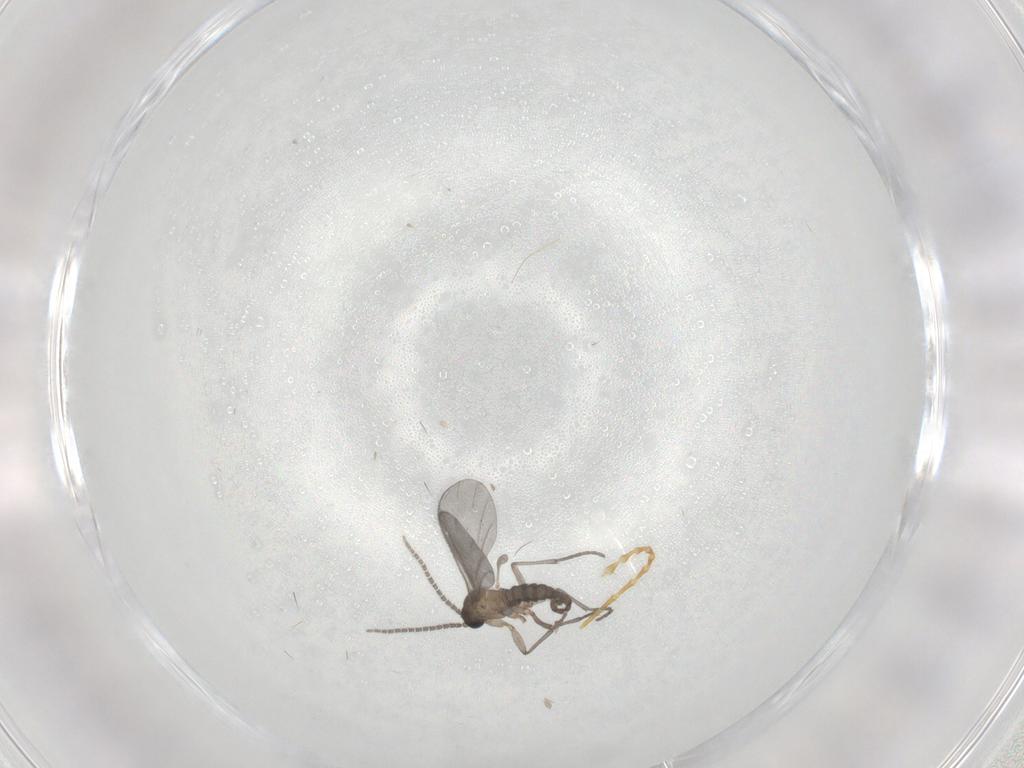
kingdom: Animalia
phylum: Arthropoda
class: Insecta
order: Diptera
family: Sciaridae
